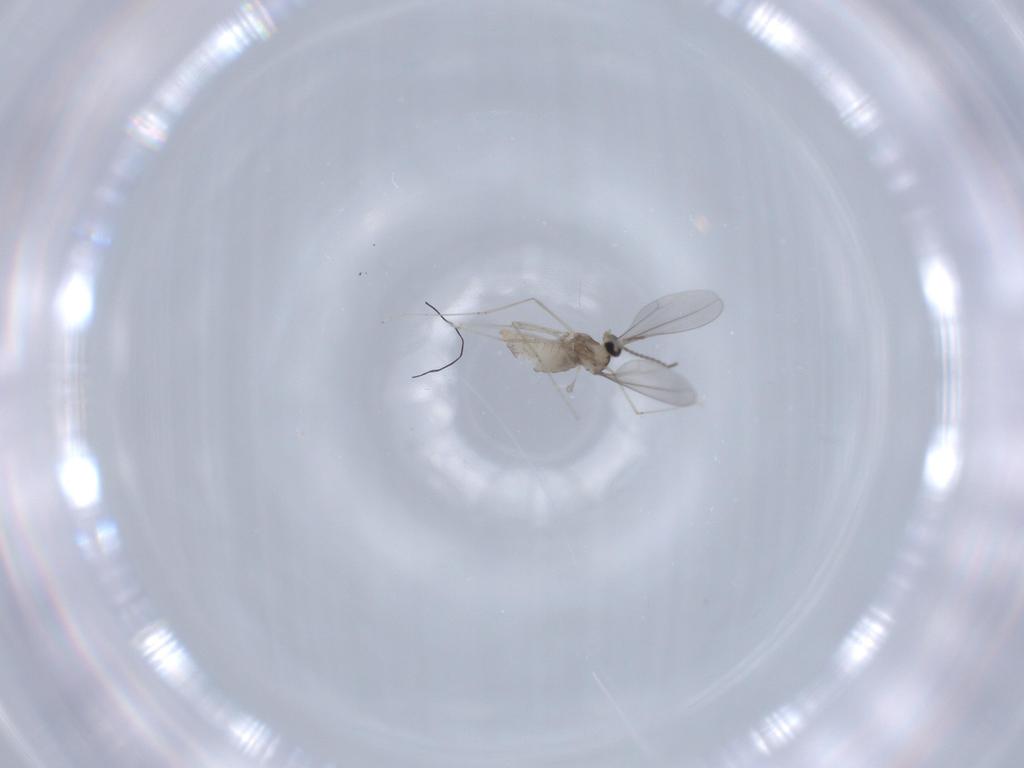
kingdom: Animalia
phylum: Arthropoda
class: Insecta
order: Diptera
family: Cecidomyiidae
